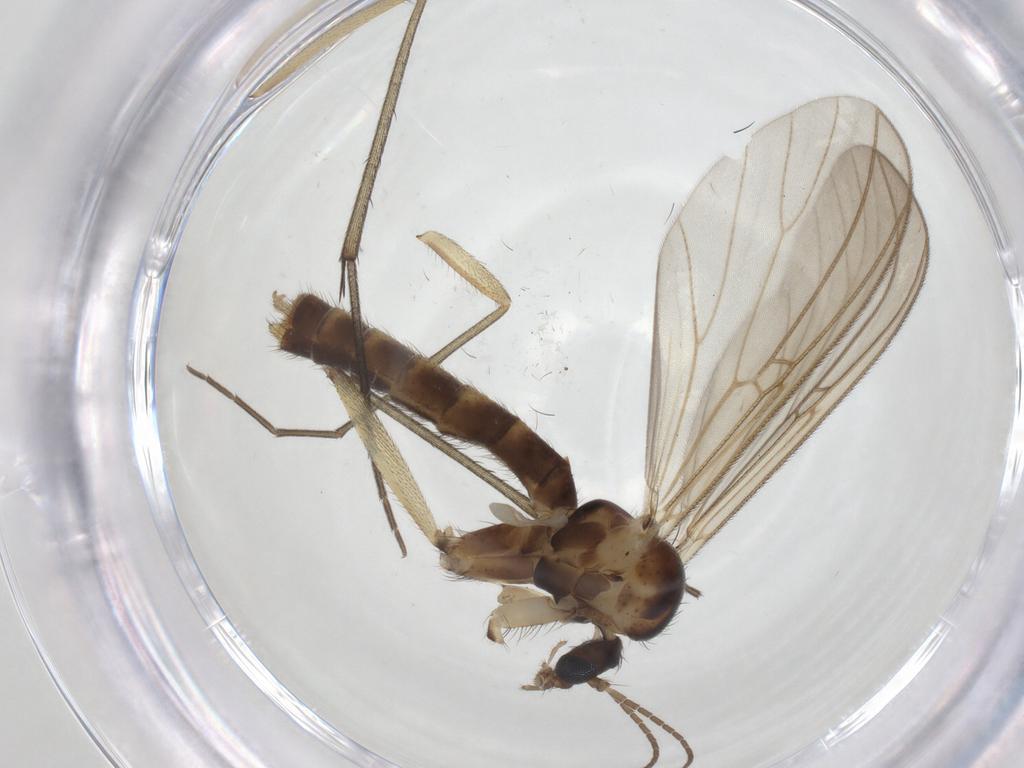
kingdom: Animalia
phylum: Arthropoda
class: Insecta
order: Diptera
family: Mycetophilidae
